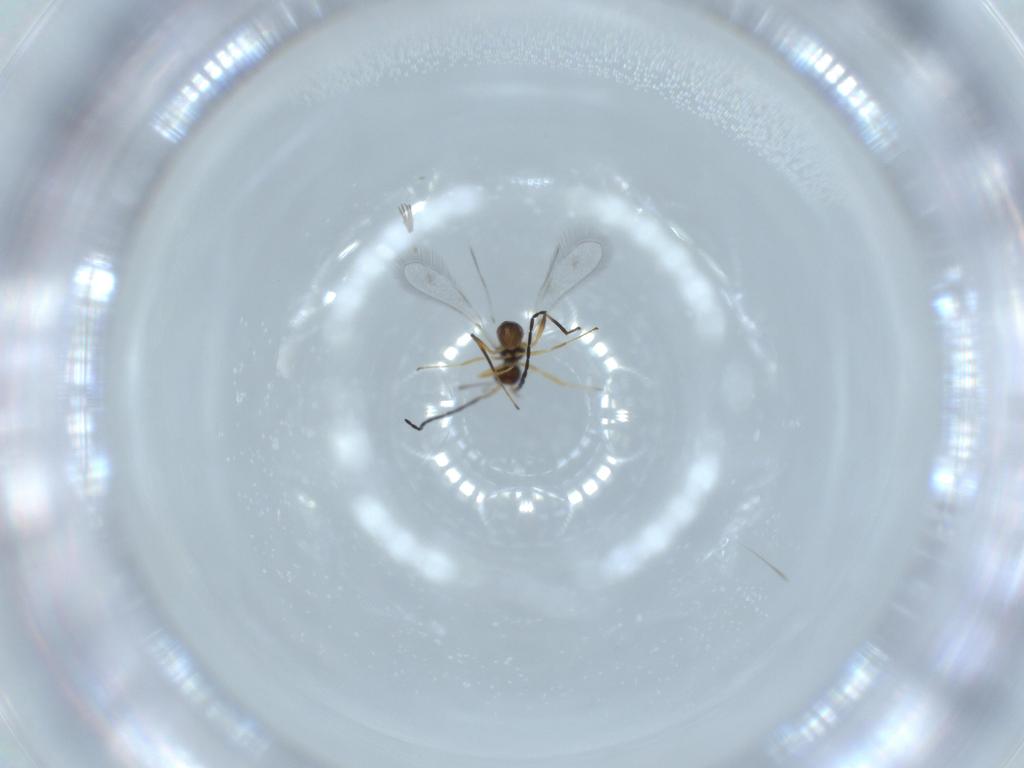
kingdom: Animalia
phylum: Arthropoda
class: Insecta
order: Hymenoptera
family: Mymaridae
